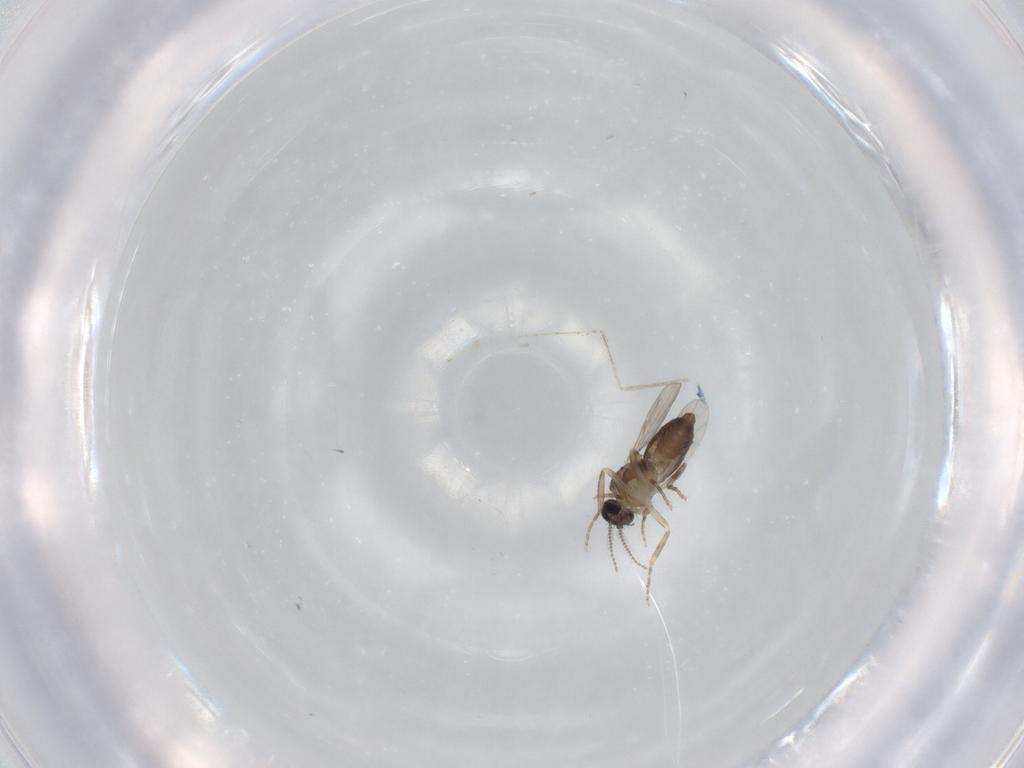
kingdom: Animalia
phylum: Arthropoda
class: Insecta
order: Diptera
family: Ceratopogonidae
